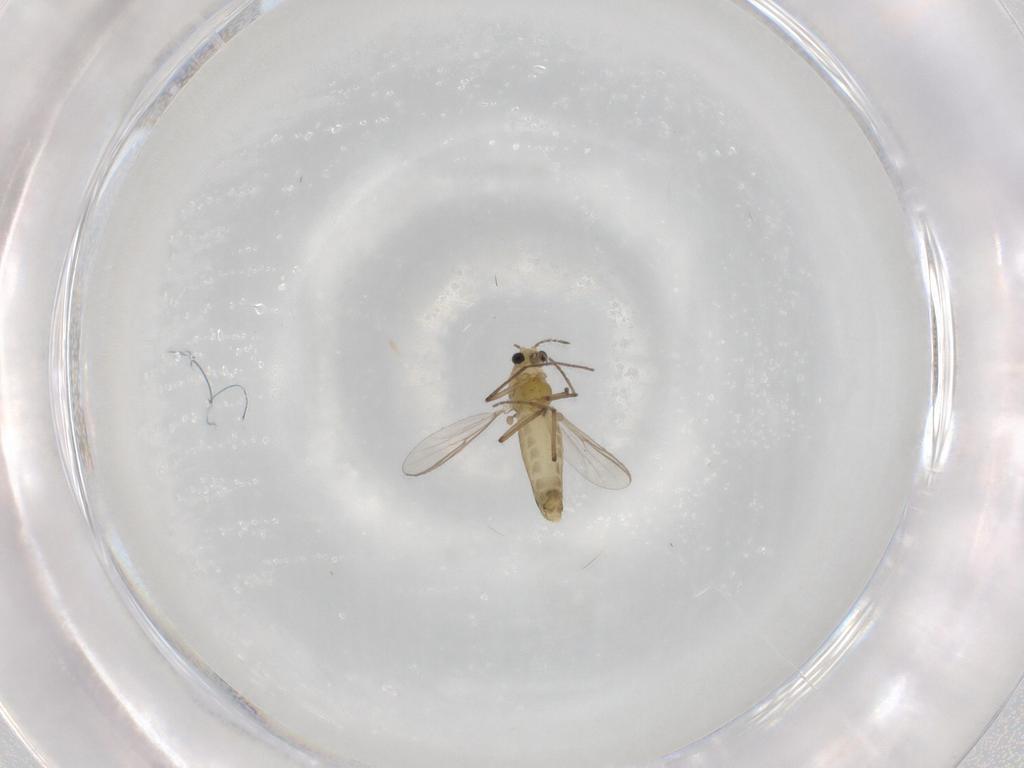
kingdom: Animalia
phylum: Arthropoda
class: Insecta
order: Diptera
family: Chironomidae
